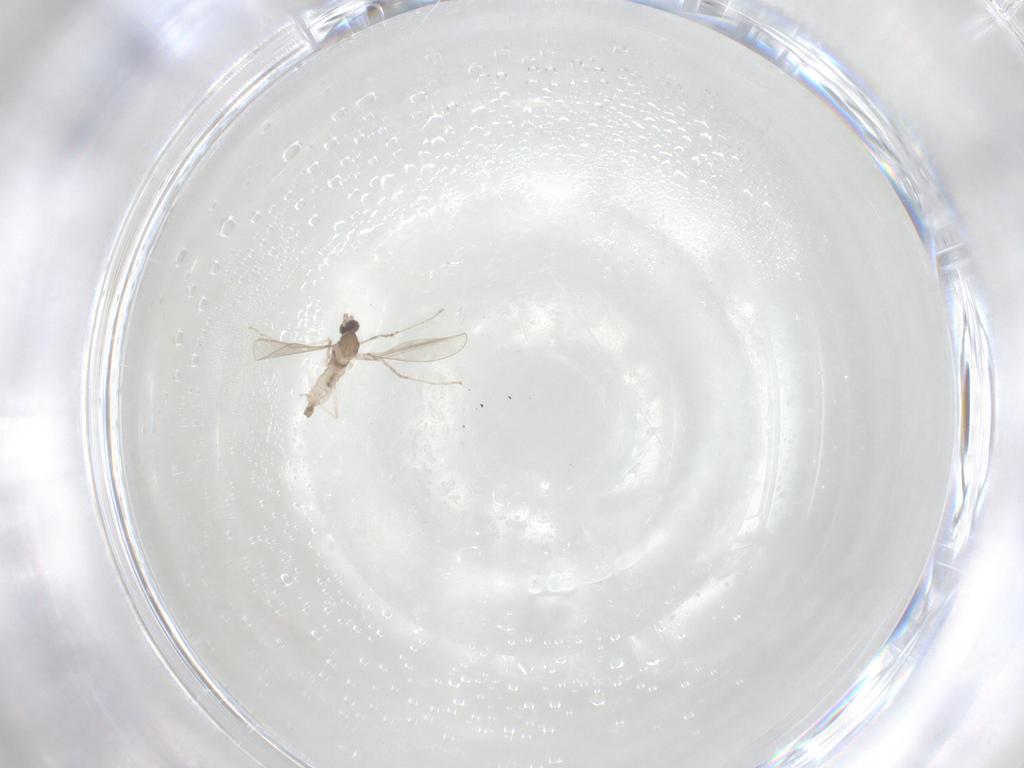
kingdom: Animalia
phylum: Arthropoda
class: Insecta
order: Diptera
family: Cecidomyiidae
